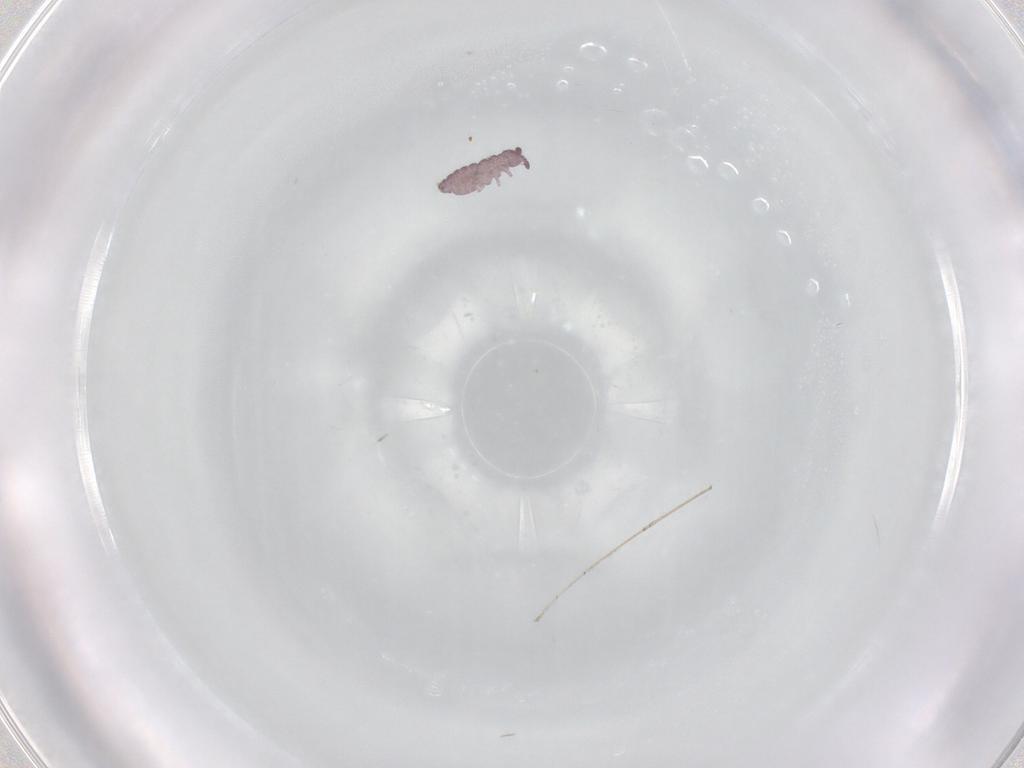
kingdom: Animalia
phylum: Arthropoda
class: Collembola
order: Poduromorpha
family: Hypogastruridae
